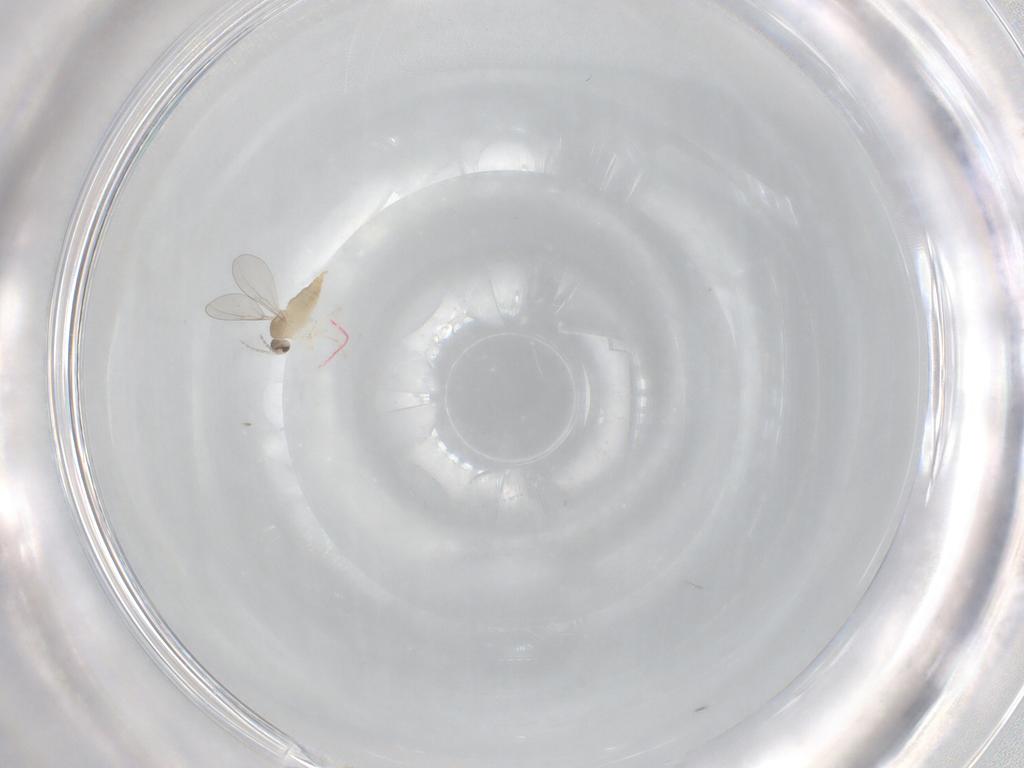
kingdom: Animalia
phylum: Arthropoda
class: Insecta
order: Diptera
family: Cecidomyiidae
